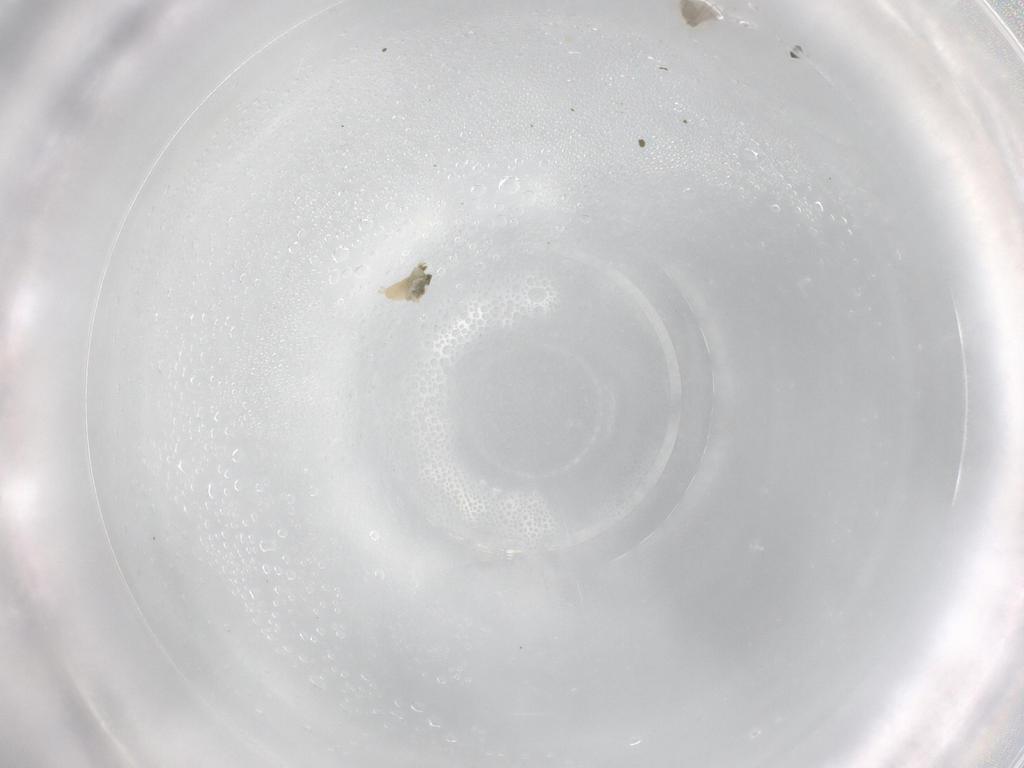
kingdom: Animalia
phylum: Arthropoda
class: Insecta
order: Diptera
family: Cecidomyiidae
